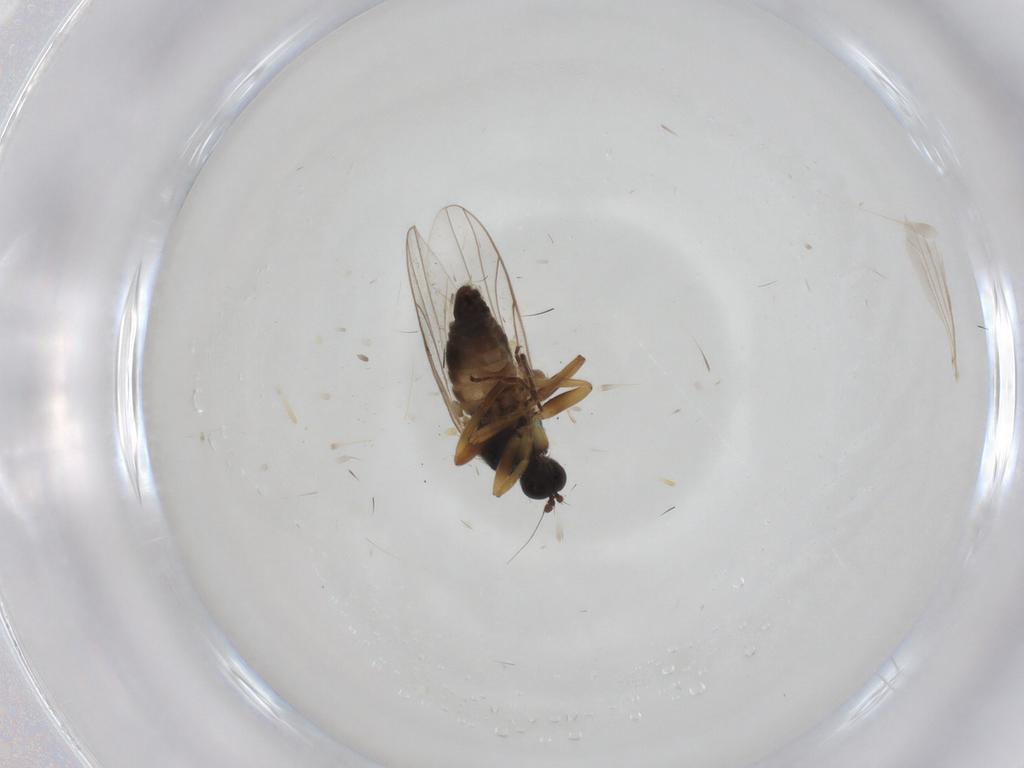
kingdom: Animalia
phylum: Arthropoda
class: Insecta
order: Diptera
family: Hybotidae
